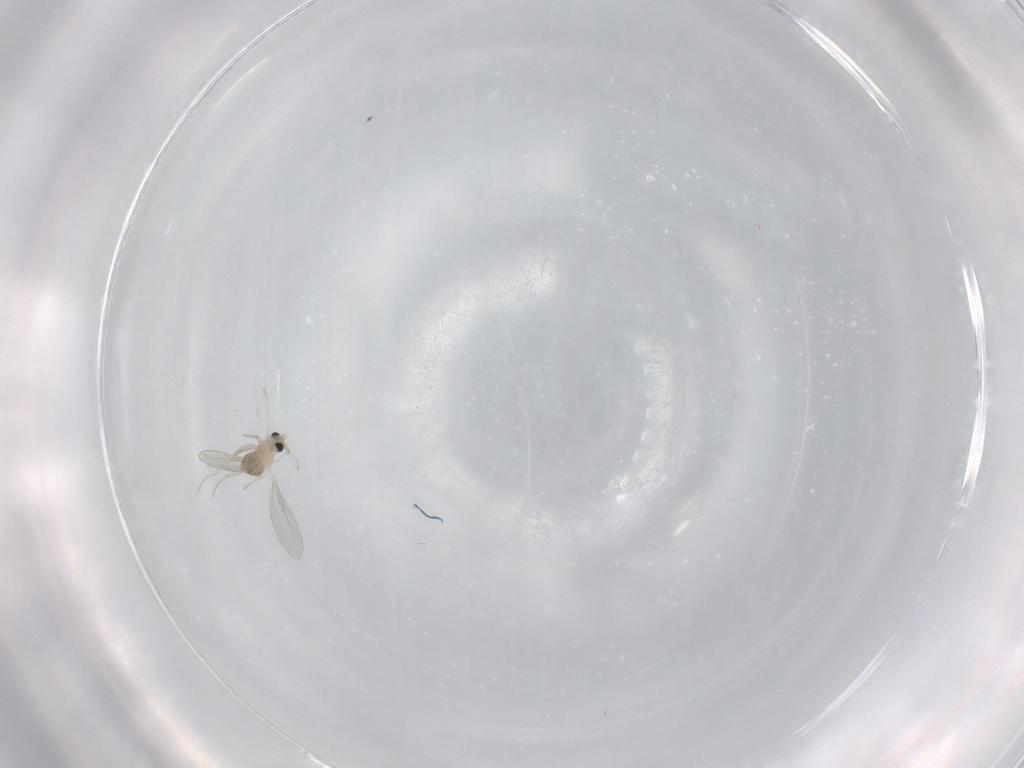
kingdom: Animalia
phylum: Arthropoda
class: Insecta
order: Diptera
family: Cecidomyiidae
